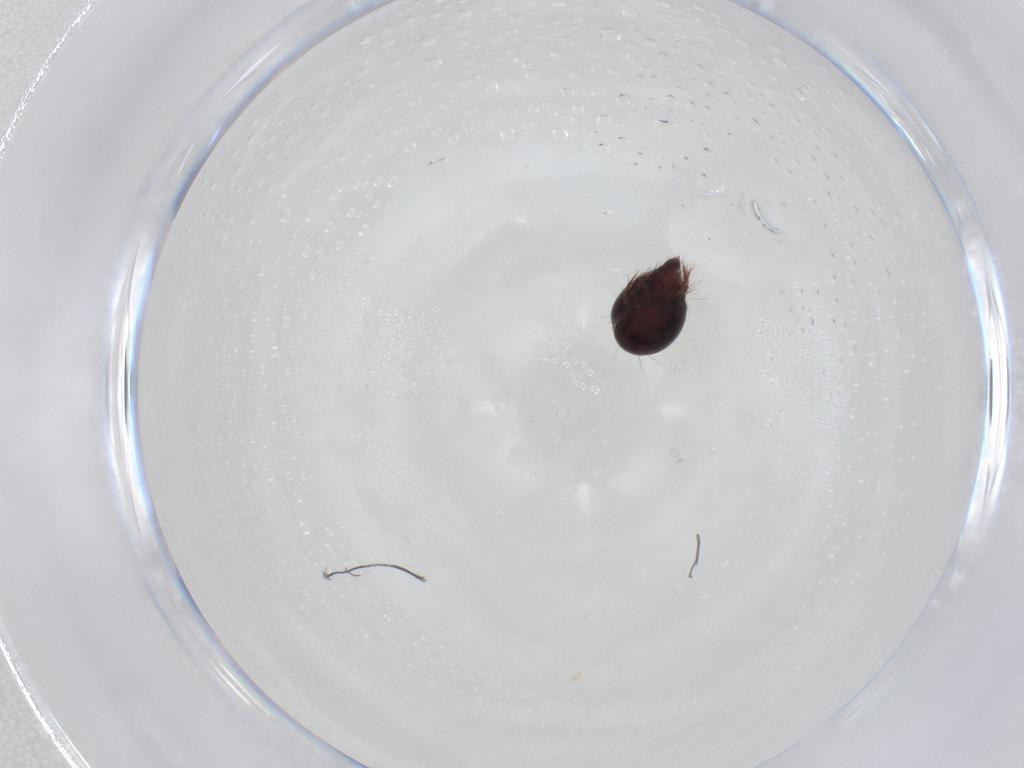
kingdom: Animalia
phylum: Arthropoda
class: Arachnida
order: Sarcoptiformes
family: Ceratoppiidae
